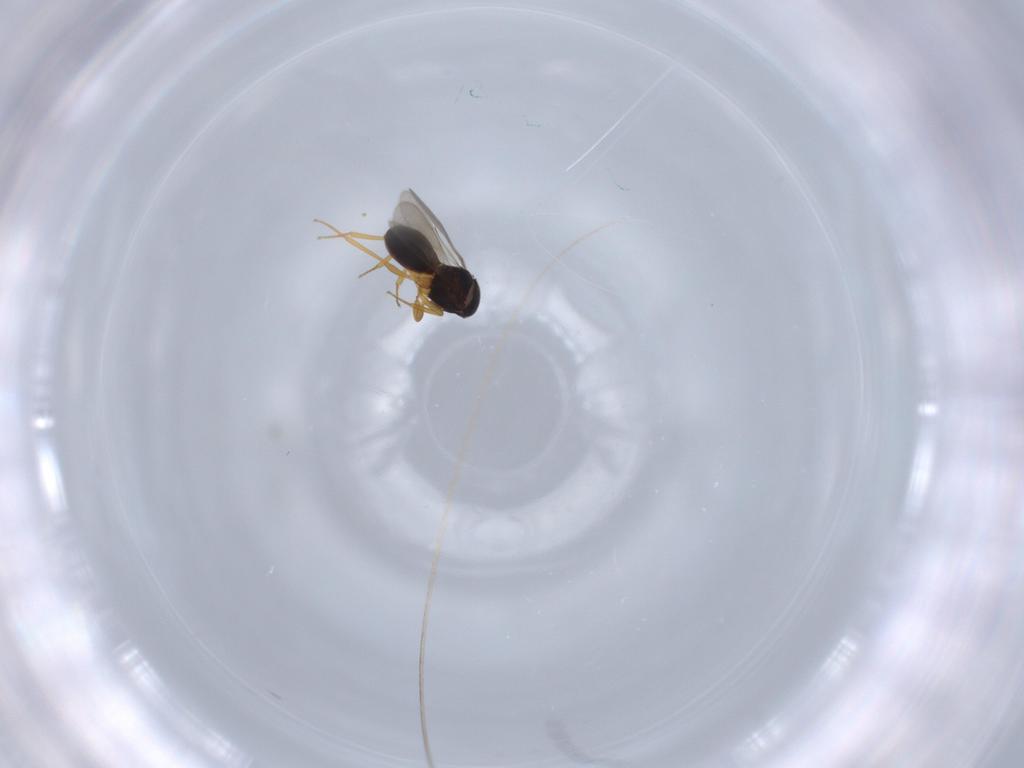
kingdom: Animalia
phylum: Arthropoda
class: Insecta
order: Hymenoptera
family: Scelionidae
